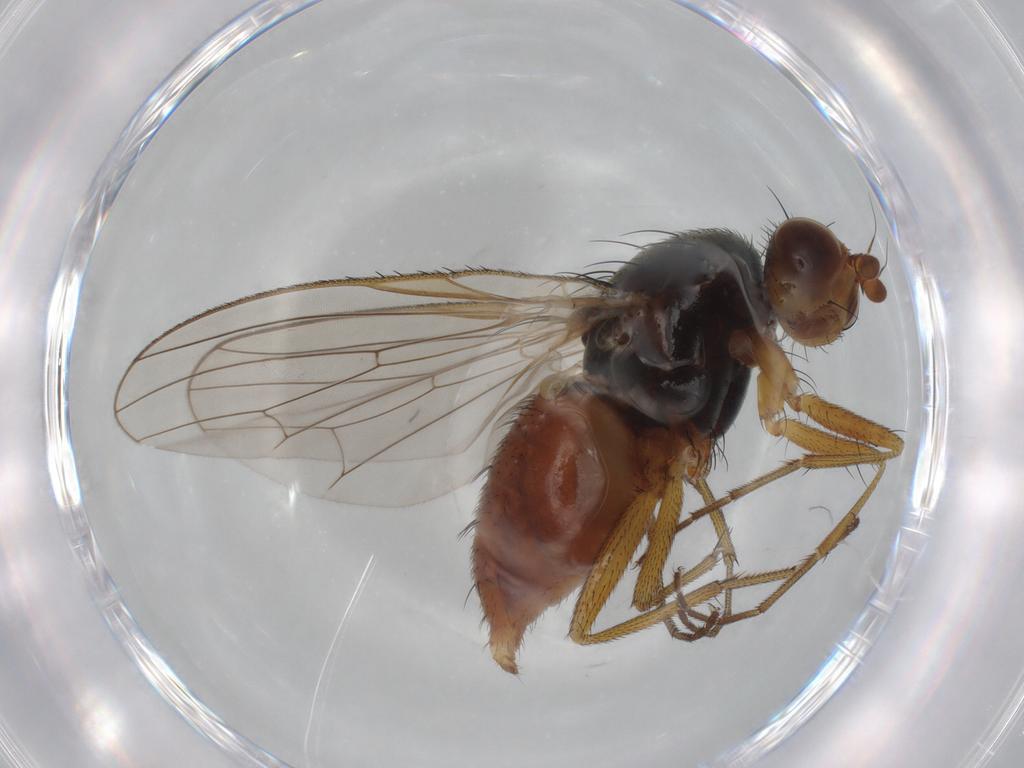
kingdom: Animalia
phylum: Arthropoda
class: Insecta
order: Diptera
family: Heleomyzidae
